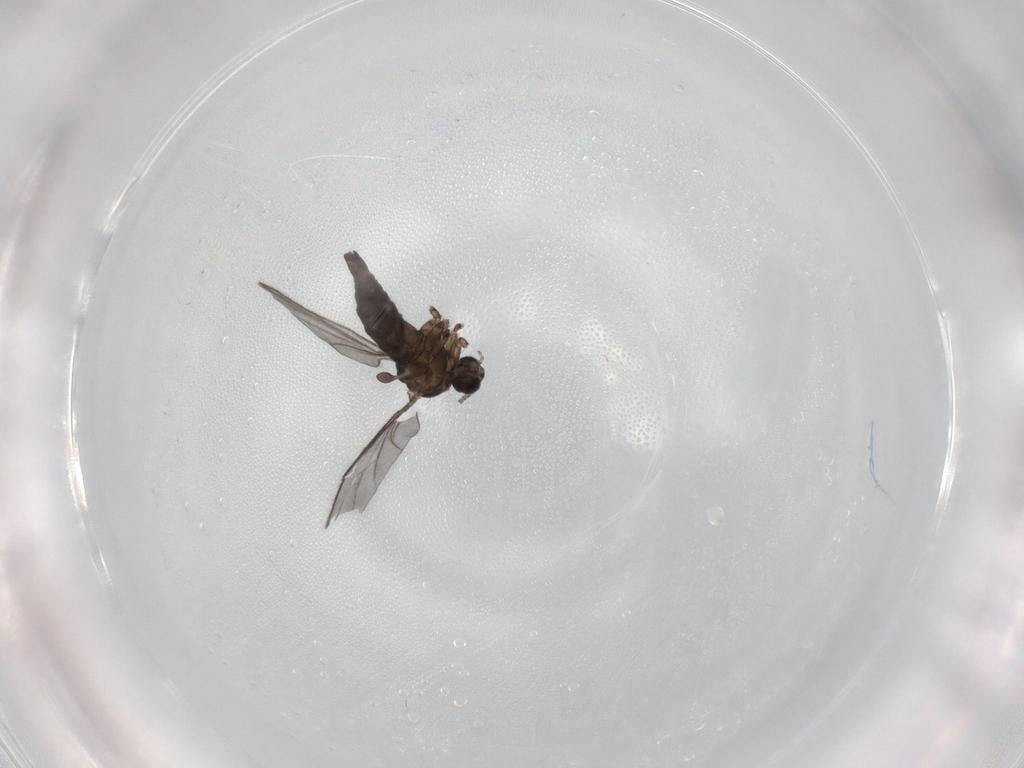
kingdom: Animalia
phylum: Arthropoda
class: Insecta
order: Diptera
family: Sciaridae
